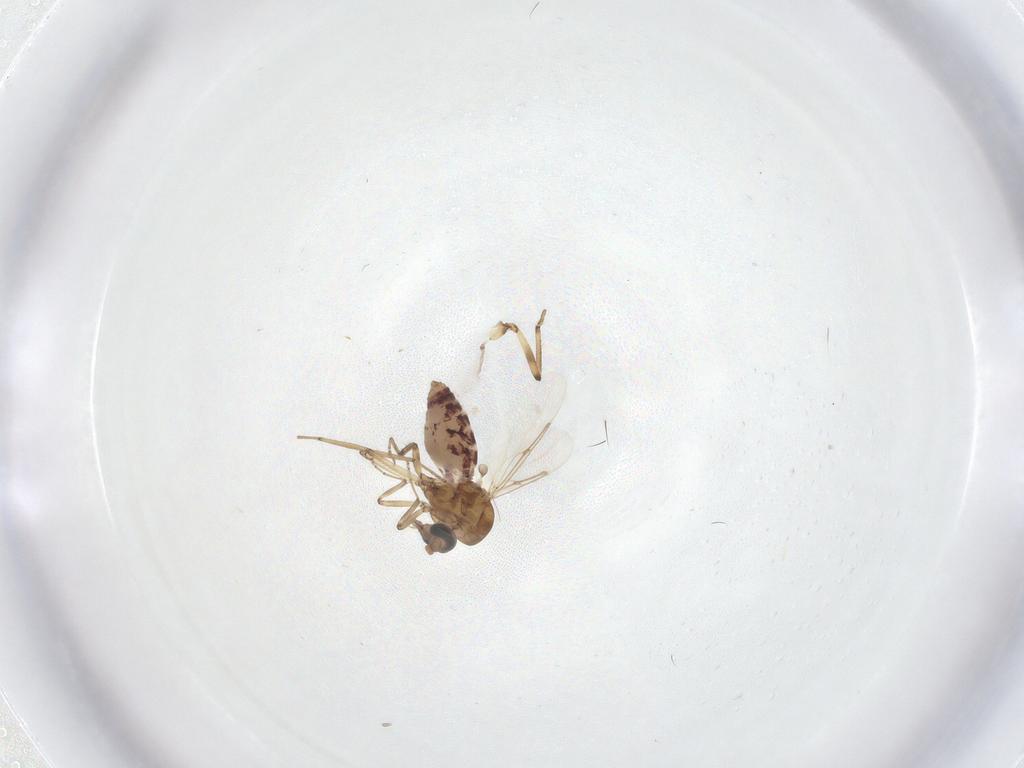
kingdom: Animalia
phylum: Arthropoda
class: Insecta
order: Diptera
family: Ceratopogonidae
